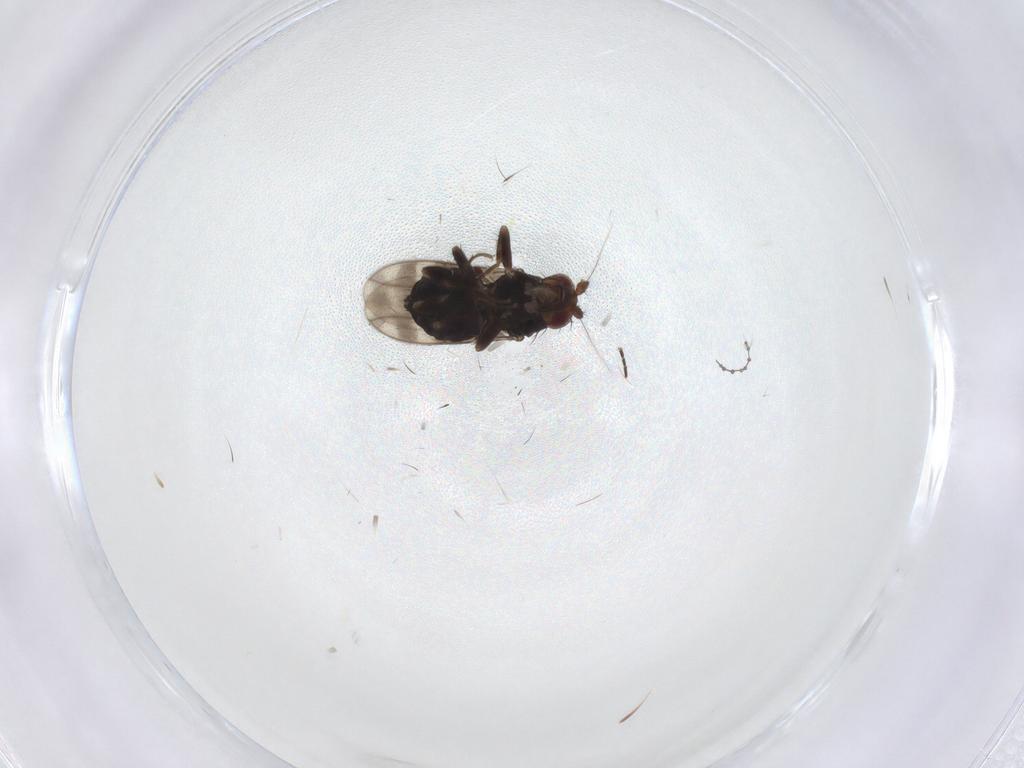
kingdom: Animalia
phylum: Arthropoda
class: Insecta
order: Diptera
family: Sphaeroceridae
